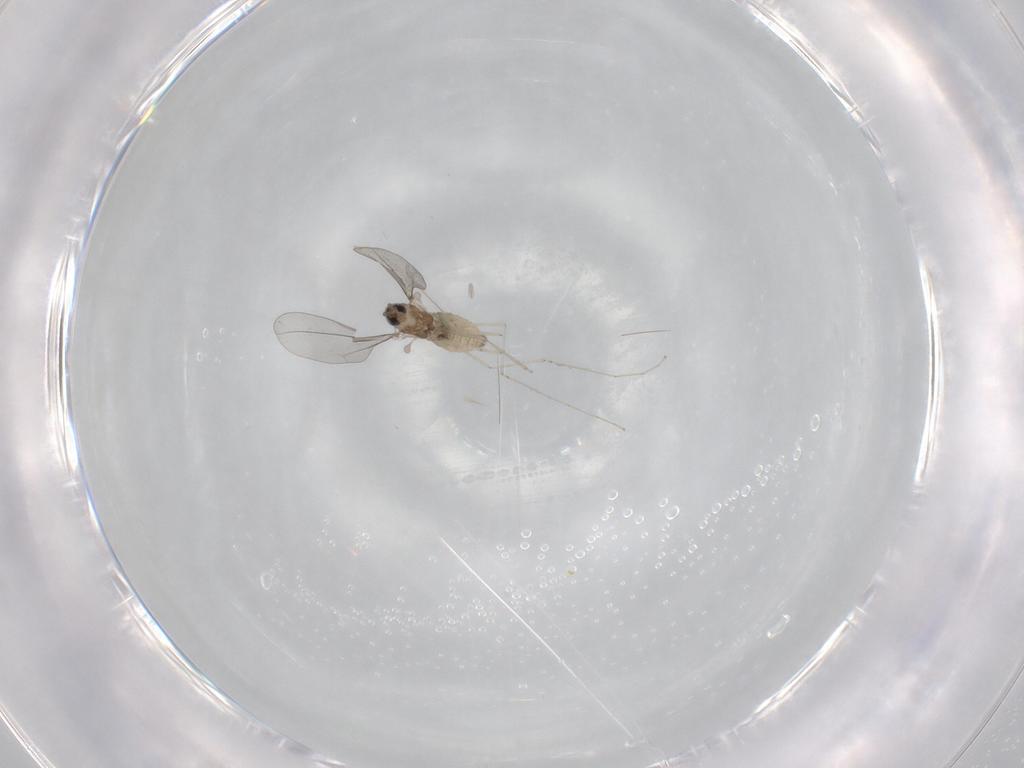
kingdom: Animalia
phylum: Arthropoda
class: Insecta
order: Diptera
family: Cecidomyiidae
